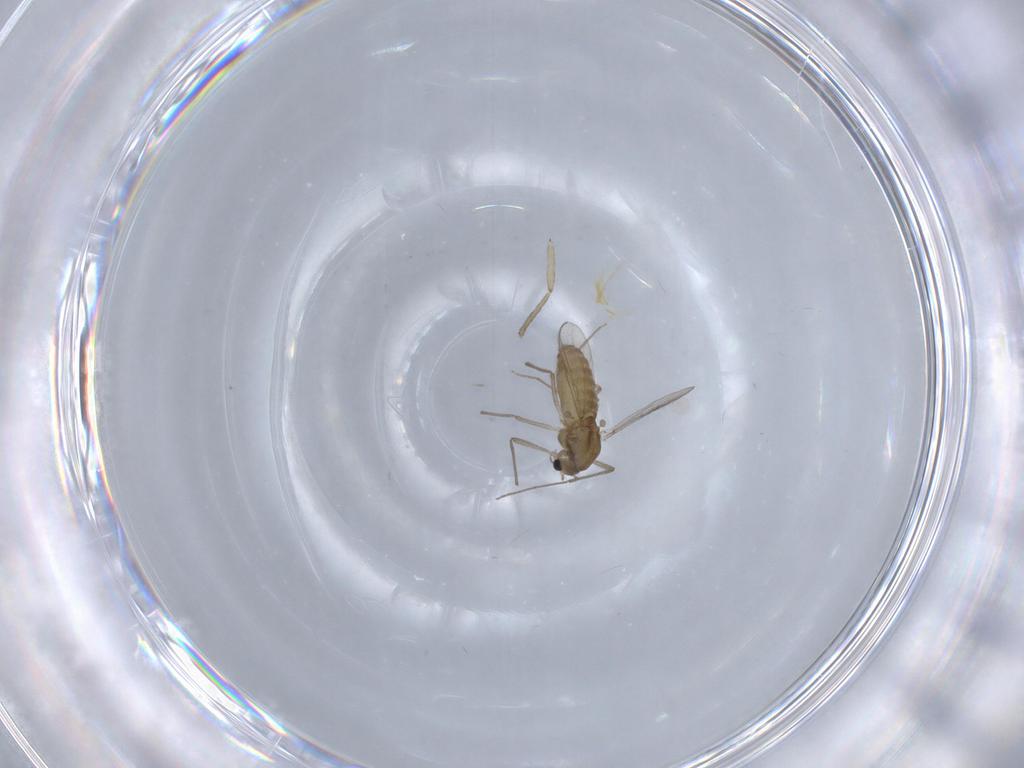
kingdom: Animalia
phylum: Arthropoda
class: Insecta
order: Diptera
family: Chironomidae
